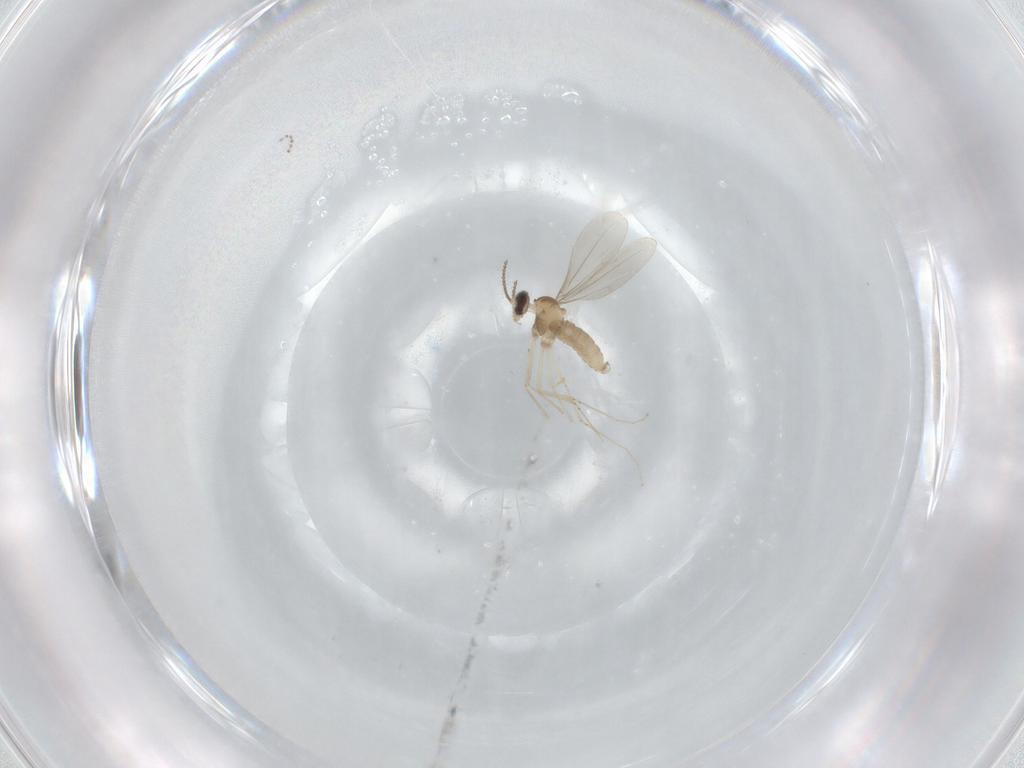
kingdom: Animalia
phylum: Arthropoda
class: Insecta
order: Diptera
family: Cecidomyiidae
